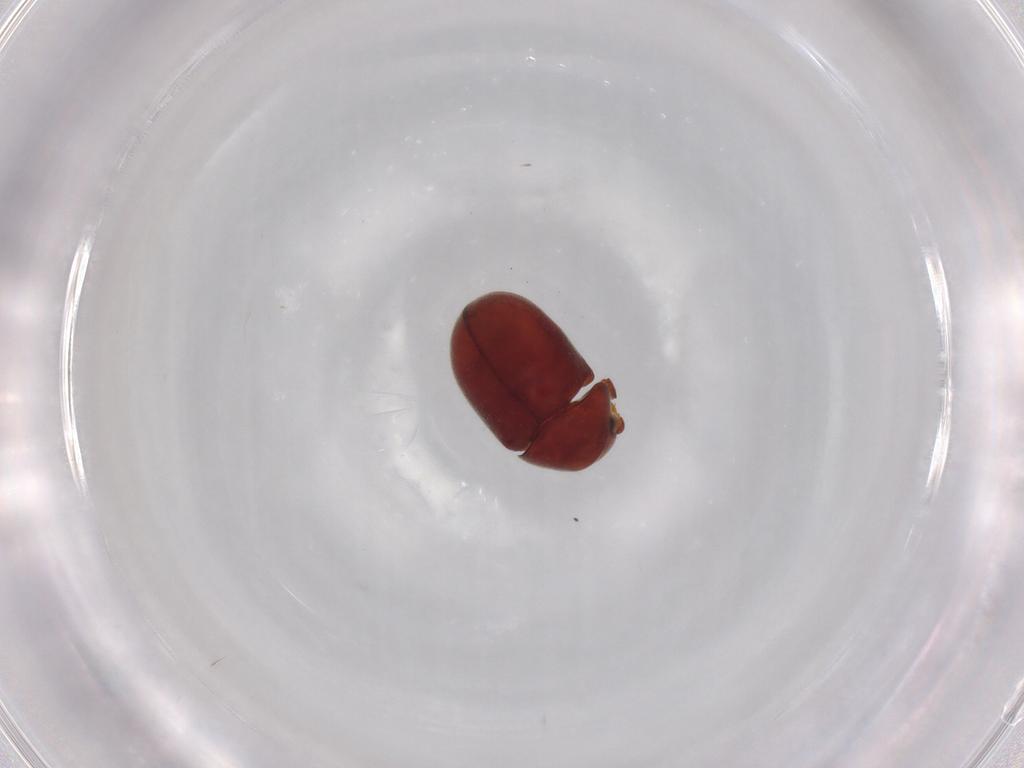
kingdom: Animalia
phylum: Arthropoda
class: Insecta
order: Coleoptera
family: Ptinidae
